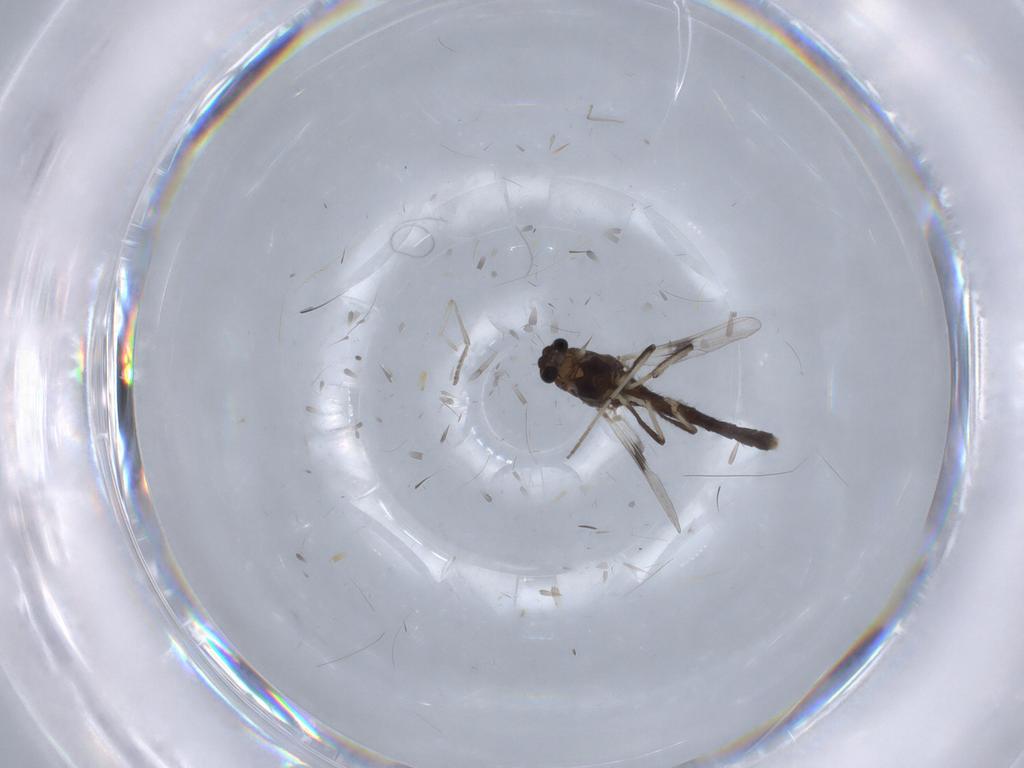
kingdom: Animalia
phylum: Arthropoda
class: Insecta
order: Diptera
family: Chironomidae
